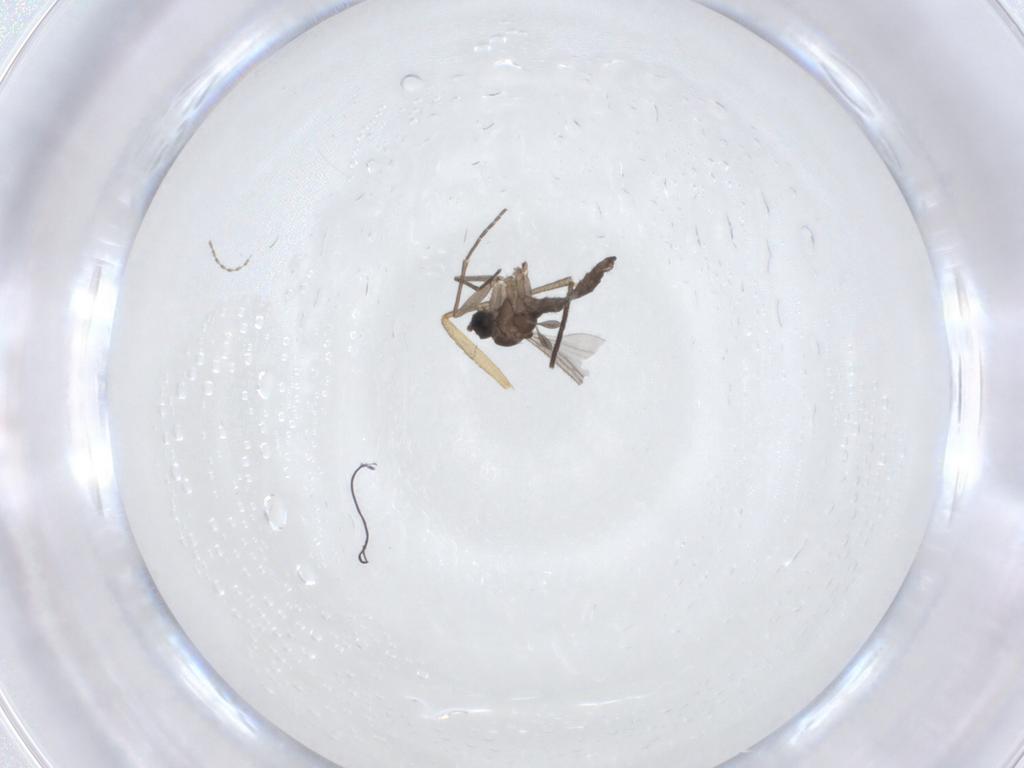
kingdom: Animalia
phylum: Arthropoda
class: Insecta
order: Diptera
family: Sciaridae
